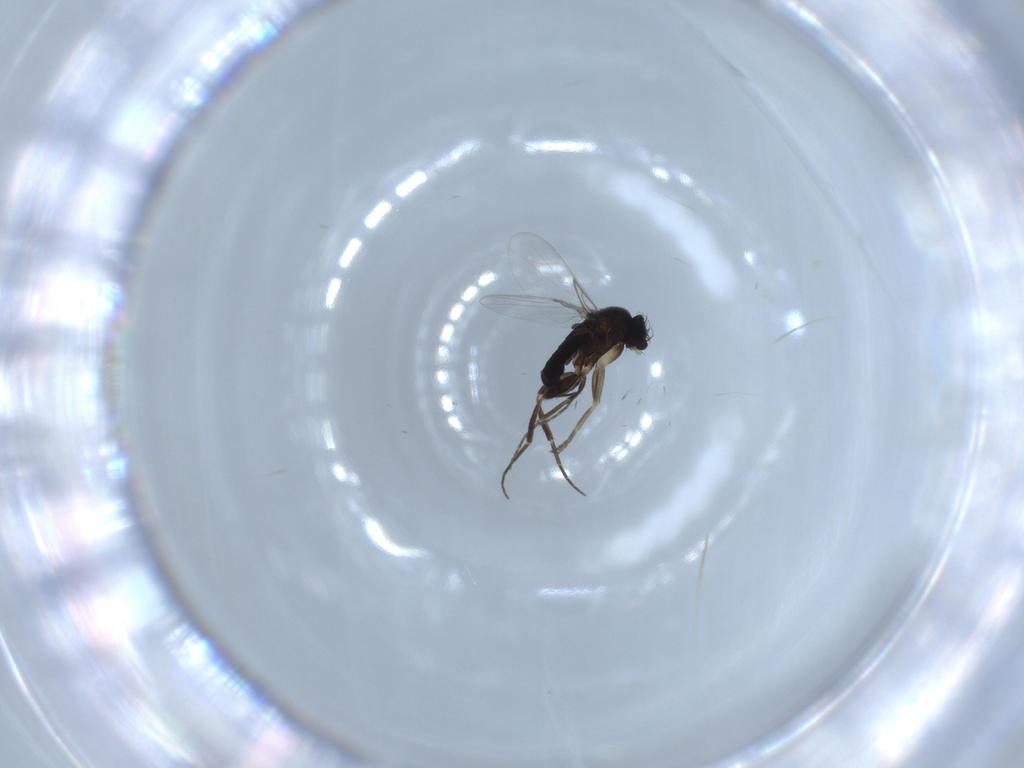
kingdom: Animalia
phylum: Arthropoda
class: Insecta
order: Diptera
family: Phoridae
